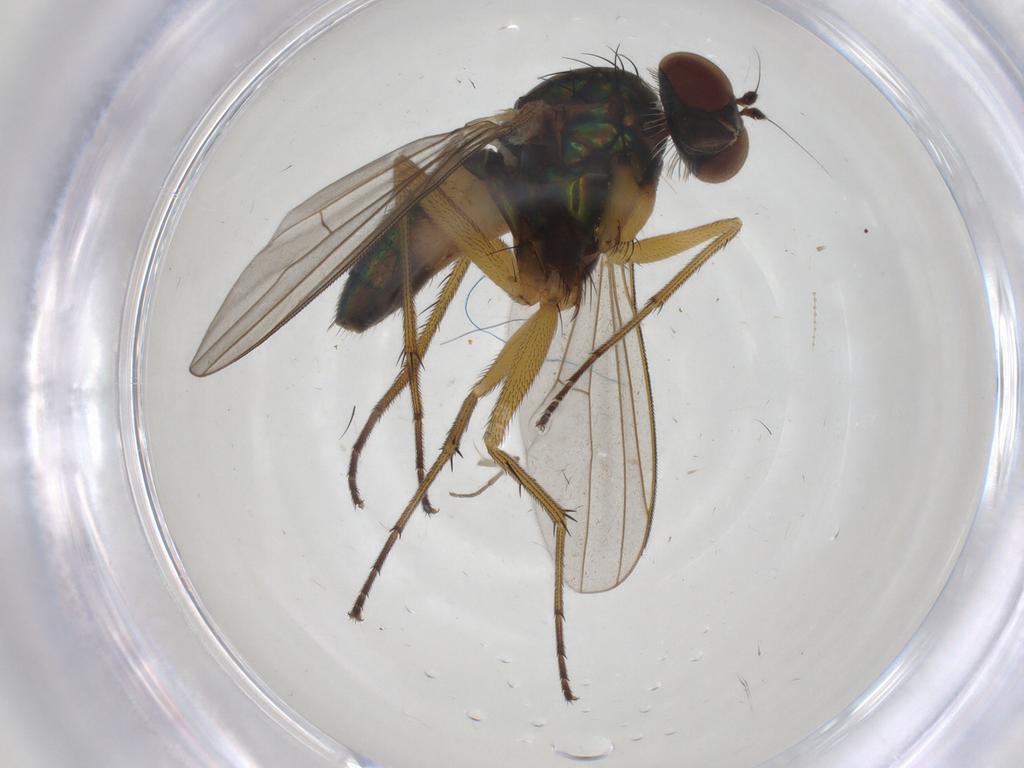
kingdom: Animalia
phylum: Arthropoda
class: Insecta
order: Diptera
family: Ceratopogonidae
